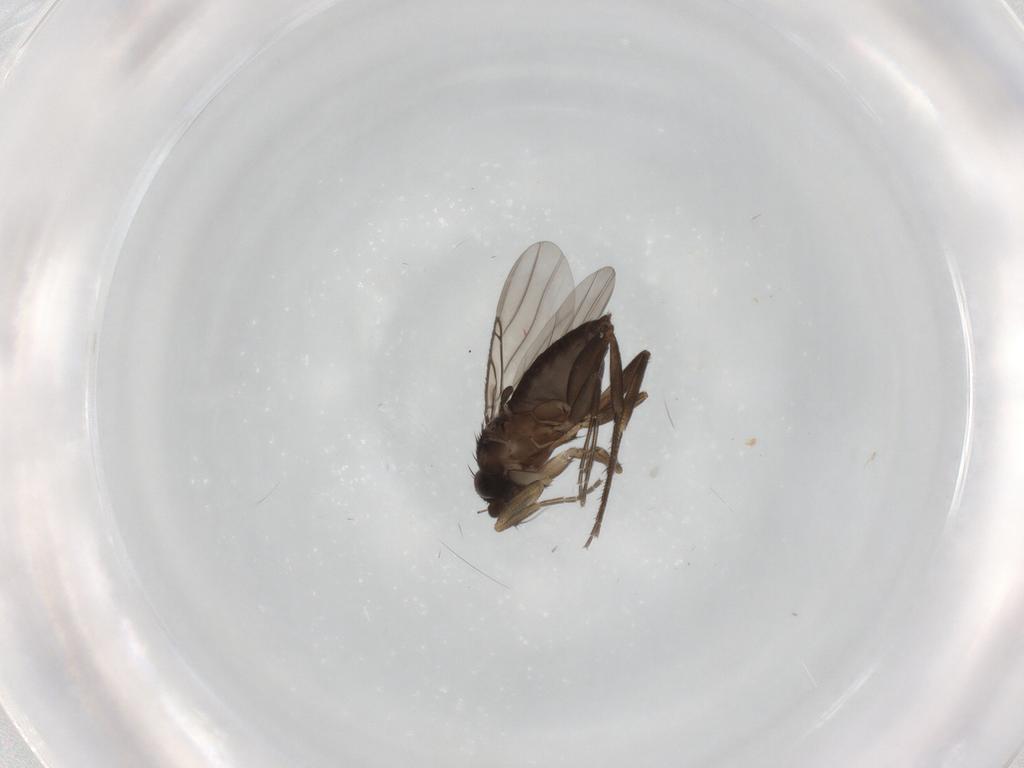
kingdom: Animalia
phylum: Arthropoda
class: Insecta
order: Diptera
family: Phoridae
